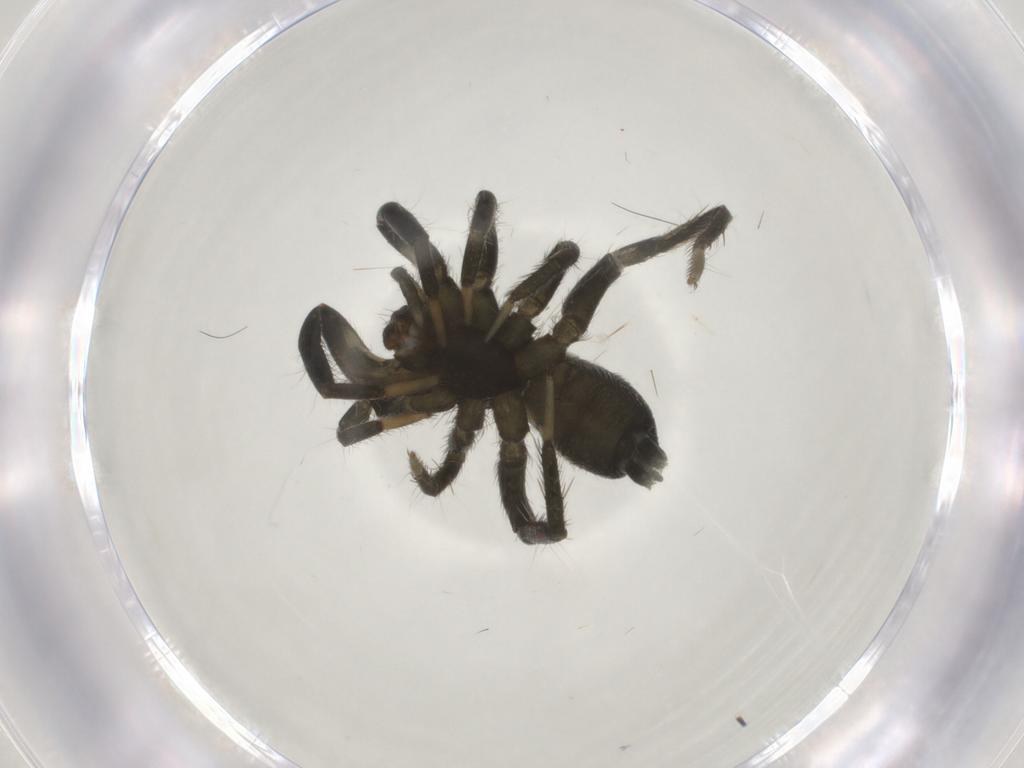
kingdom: Animalia
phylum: Arthropoda
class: Arachnida
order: Araneae
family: Gnaphosidae
